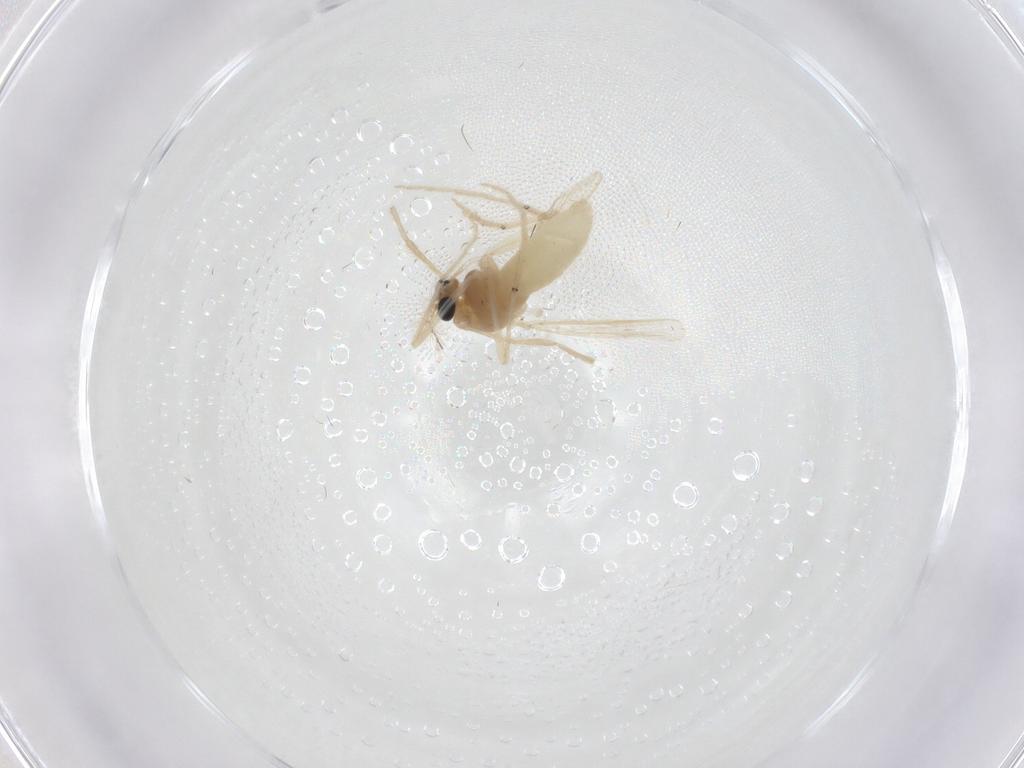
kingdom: Animalia
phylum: Arthropoda
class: Insecta
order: Diptera
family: Chironomidae
